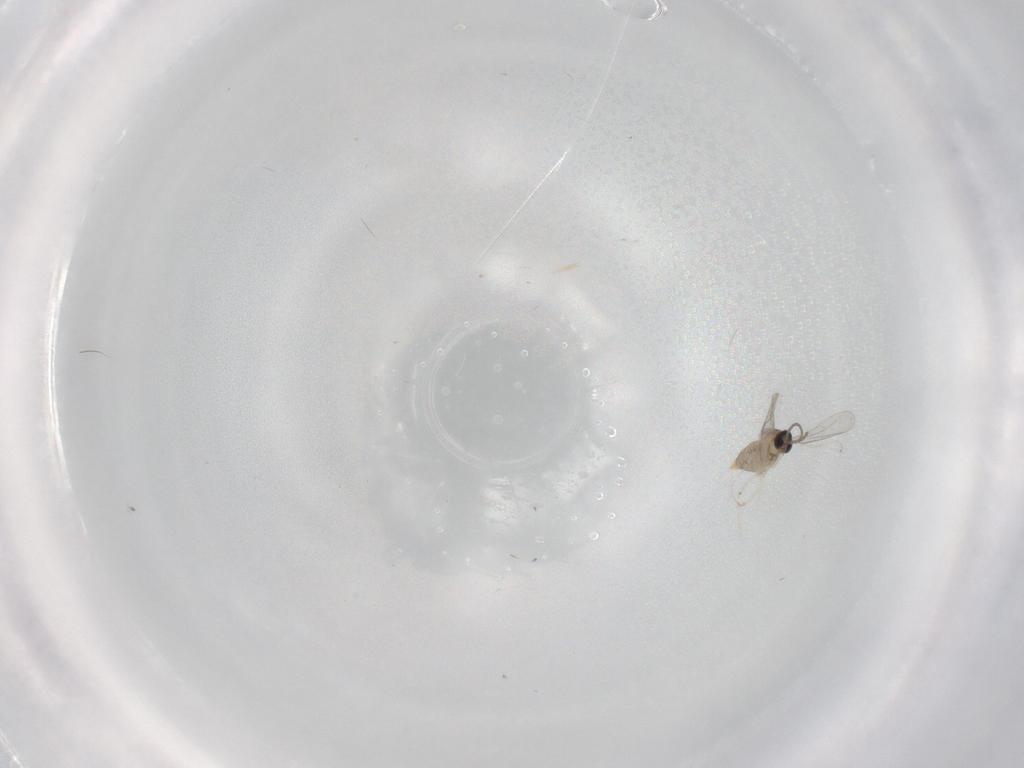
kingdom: Animalia
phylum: Arthropoda
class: Insecta
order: Diptera
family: Cecidomyiidae
